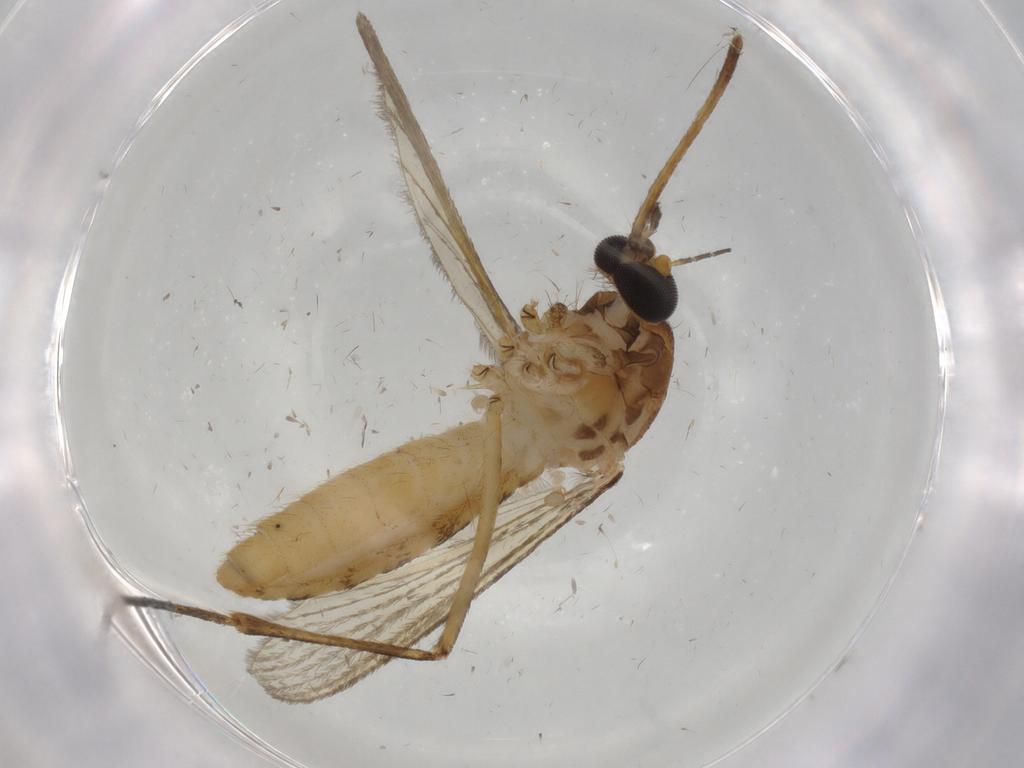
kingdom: Animalia
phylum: Arthropoda
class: Insecta
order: Diptera
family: Cecidomyiidae
